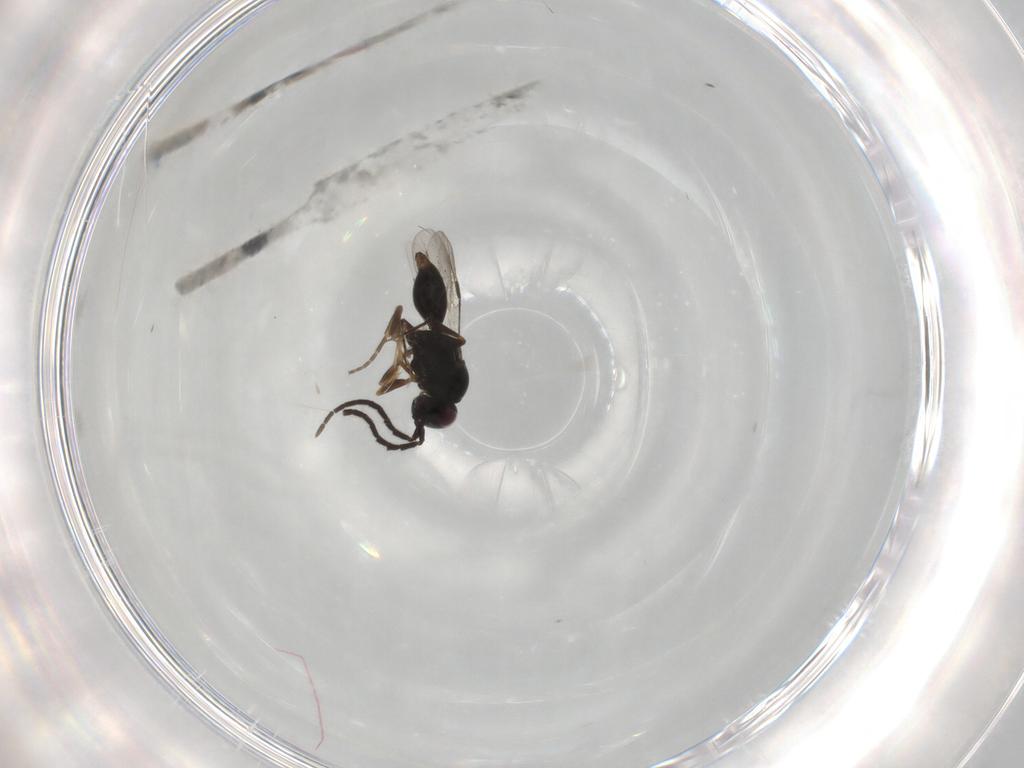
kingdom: Animalia
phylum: Arthropoda
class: Insecta
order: Hymenoptera
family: Megaspilidae
